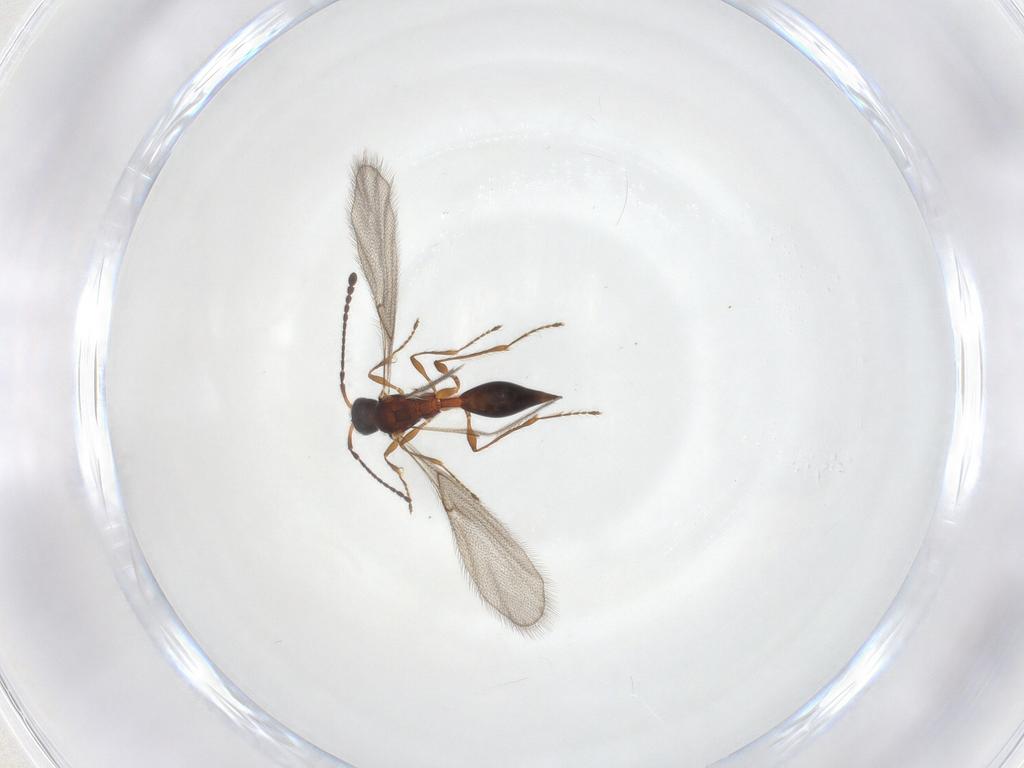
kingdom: Animalia
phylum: Arthropoda
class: Insecta
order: Hymenoptera
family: Diapriidae
